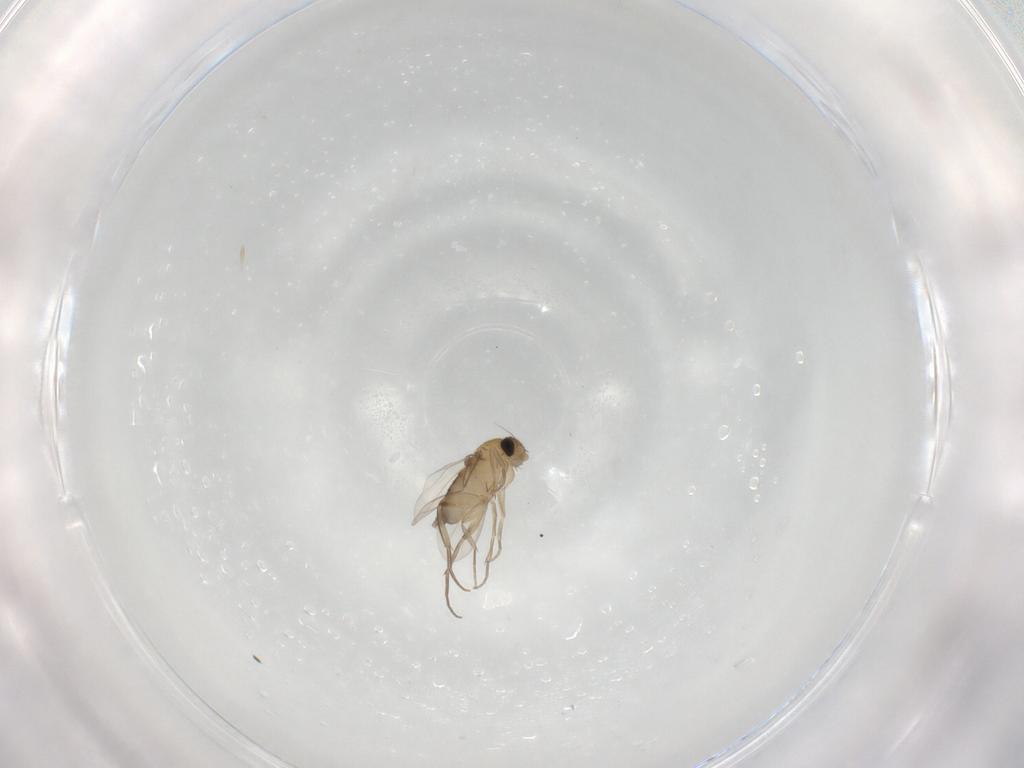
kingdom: Animalia
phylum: Arthropoda
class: Insecta
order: Diptera
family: Phoridae
